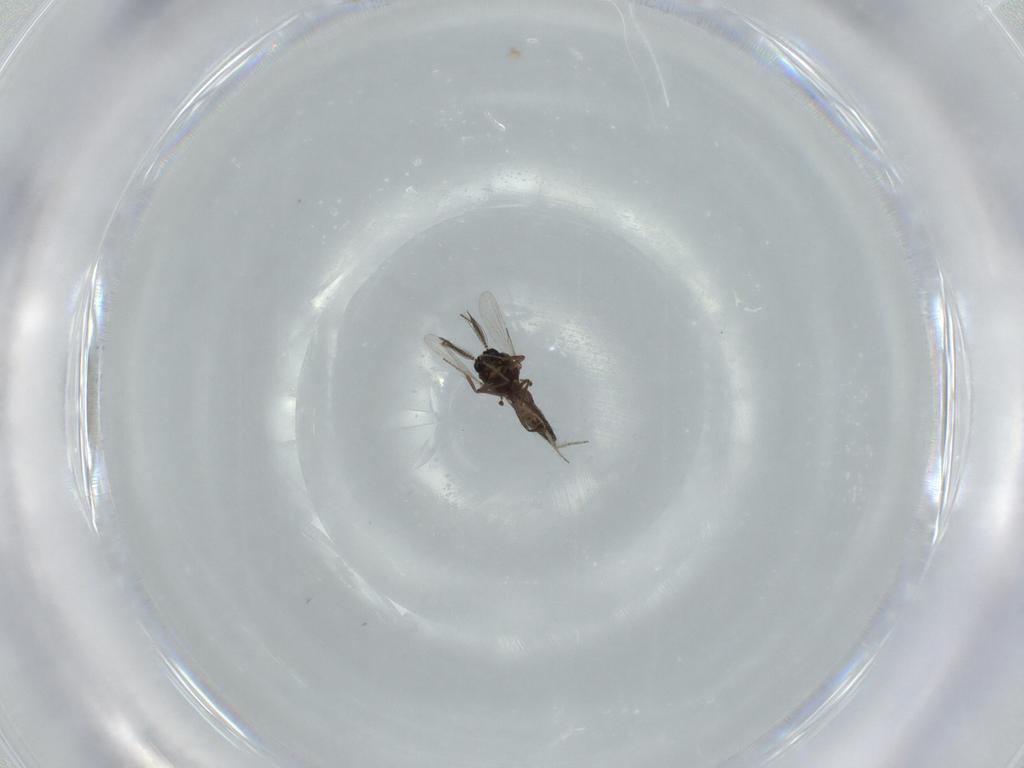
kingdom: Animalia
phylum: Arthropoda
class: Insecta
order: Diptera
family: Ceratopogonidae
